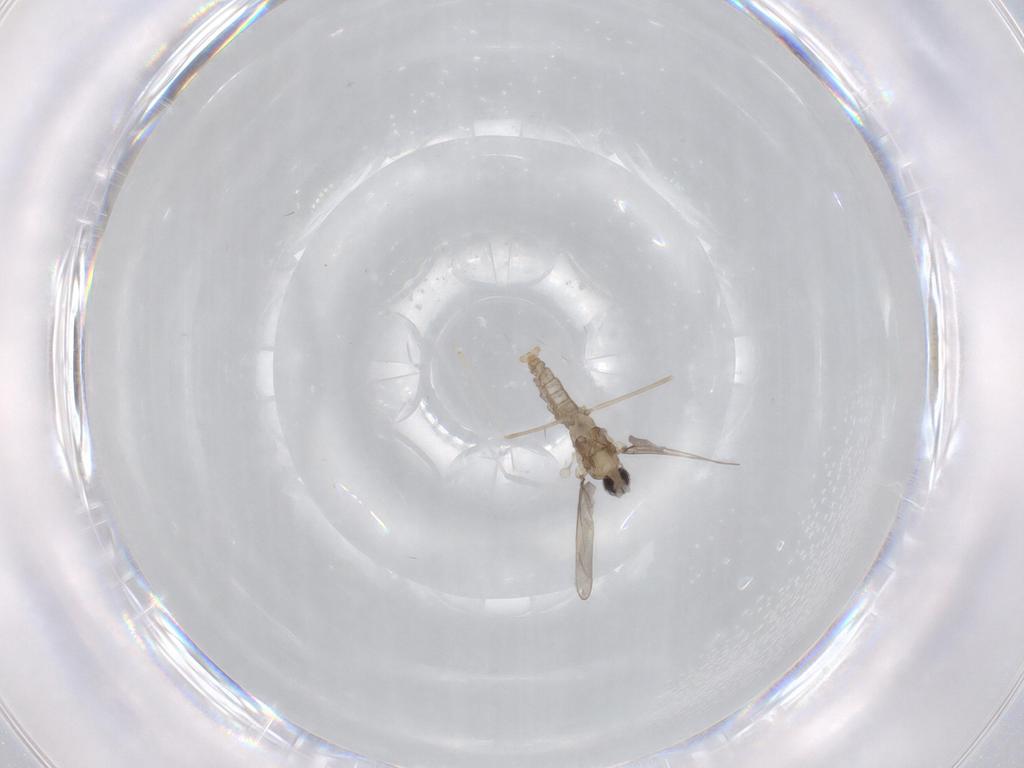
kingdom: Animalia
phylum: Arthropoda
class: Insecta
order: Diptera
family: Cecidomyiidae
